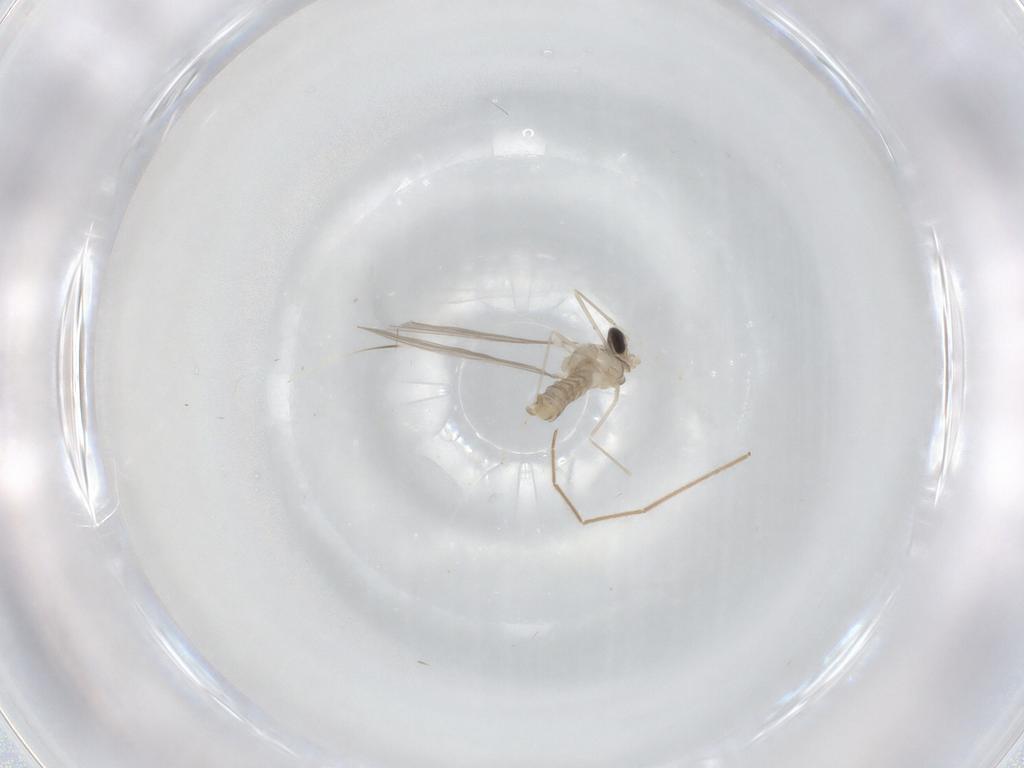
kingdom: Animalia
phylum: Arthropoda
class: Insecta
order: Diptera
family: Cecidomyiidae
